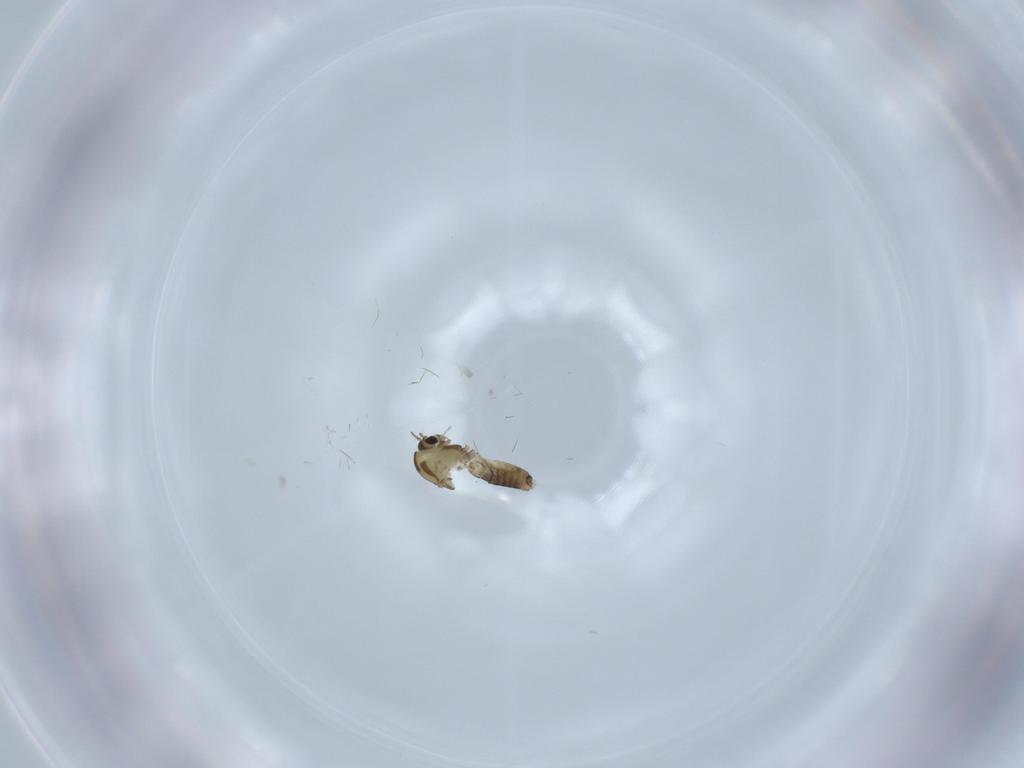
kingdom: Animalia
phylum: Arthropoda
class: Insecta
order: Diptera
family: Chironomidae
